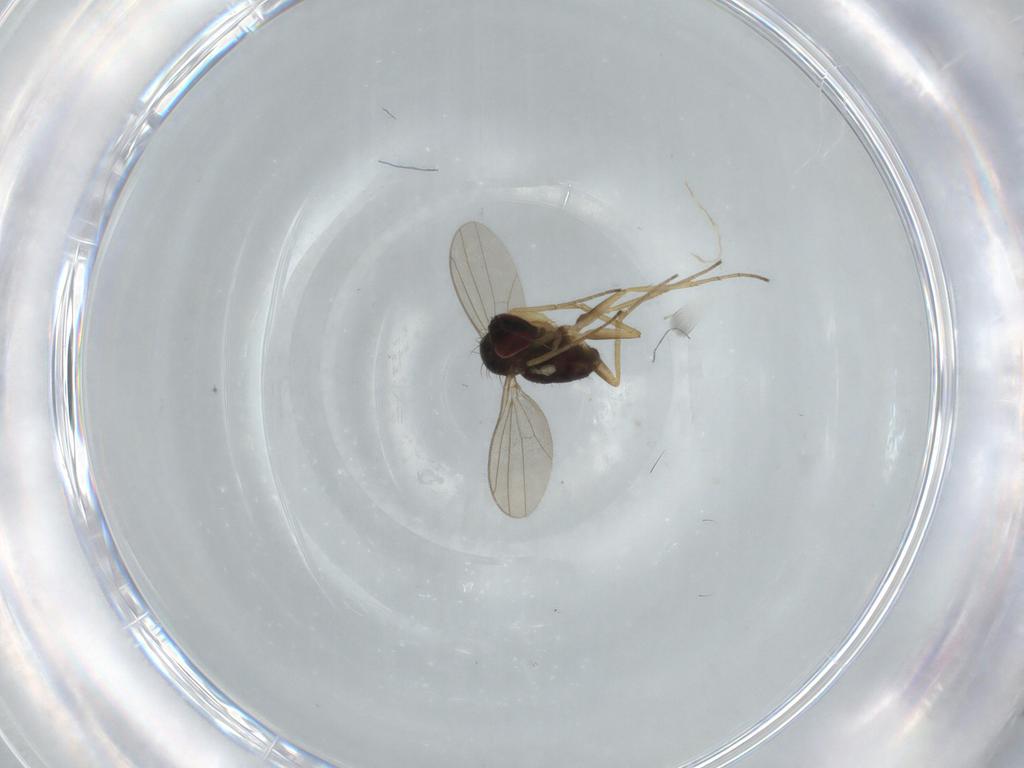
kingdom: Animalia
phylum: Arthropoda
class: Insecta
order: Diptera
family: Dolichopodidae
